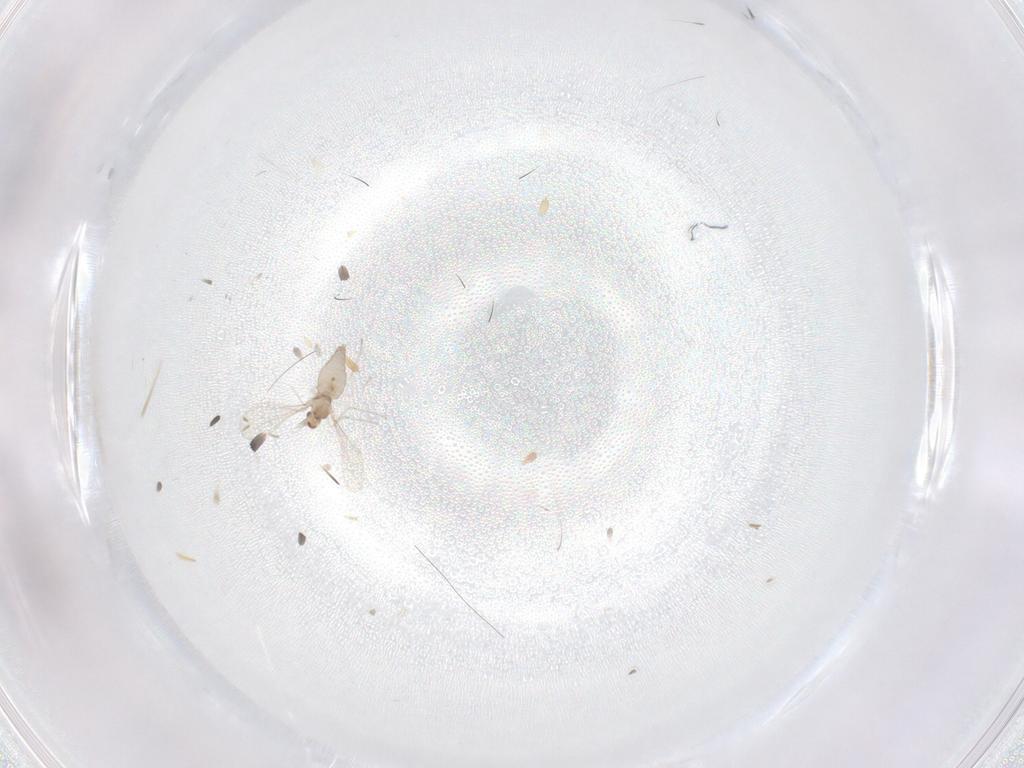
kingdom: Animalia
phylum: Arthropoda
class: Insecta
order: Diptera
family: Cecidomyiidae
